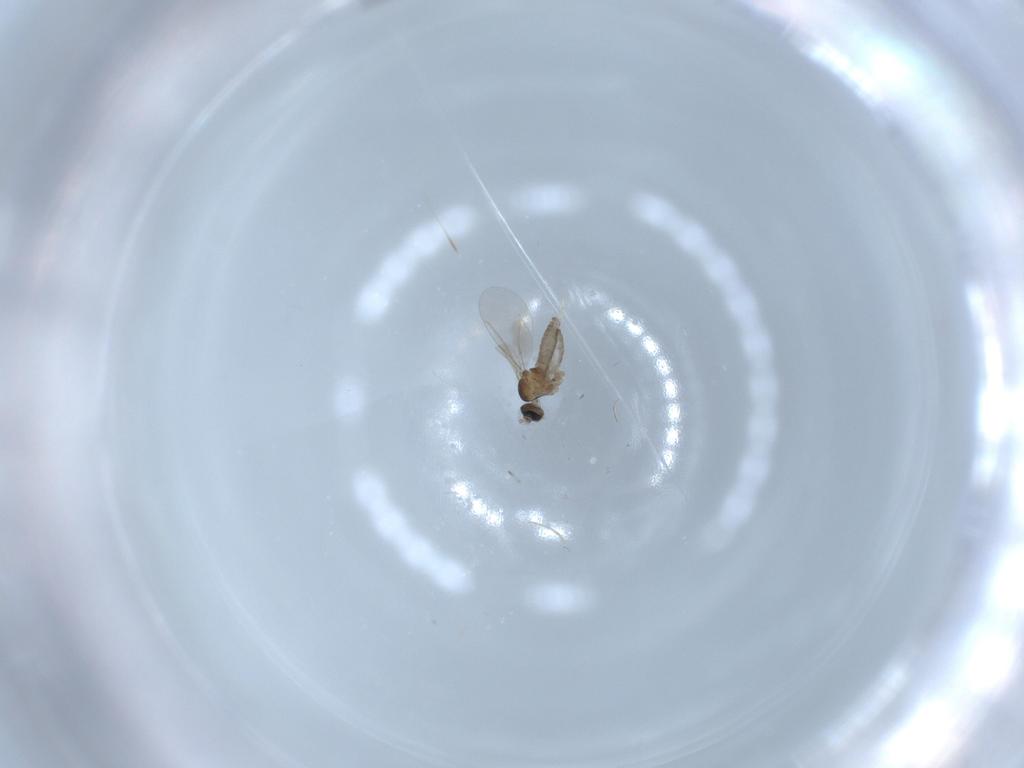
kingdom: Animalia
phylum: Arthropoda
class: Insecta
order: Diptera
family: Cecidomyiidae
